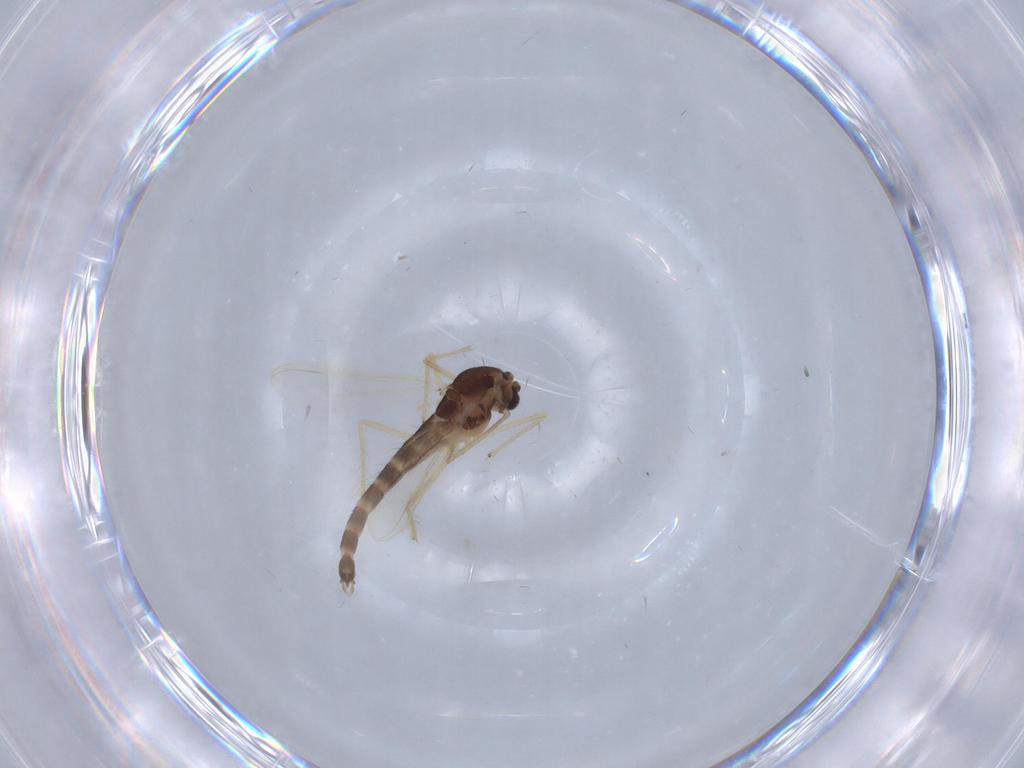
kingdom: Animalia
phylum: Arthropoda
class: Insecta
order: Diptera
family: Chironomidae
